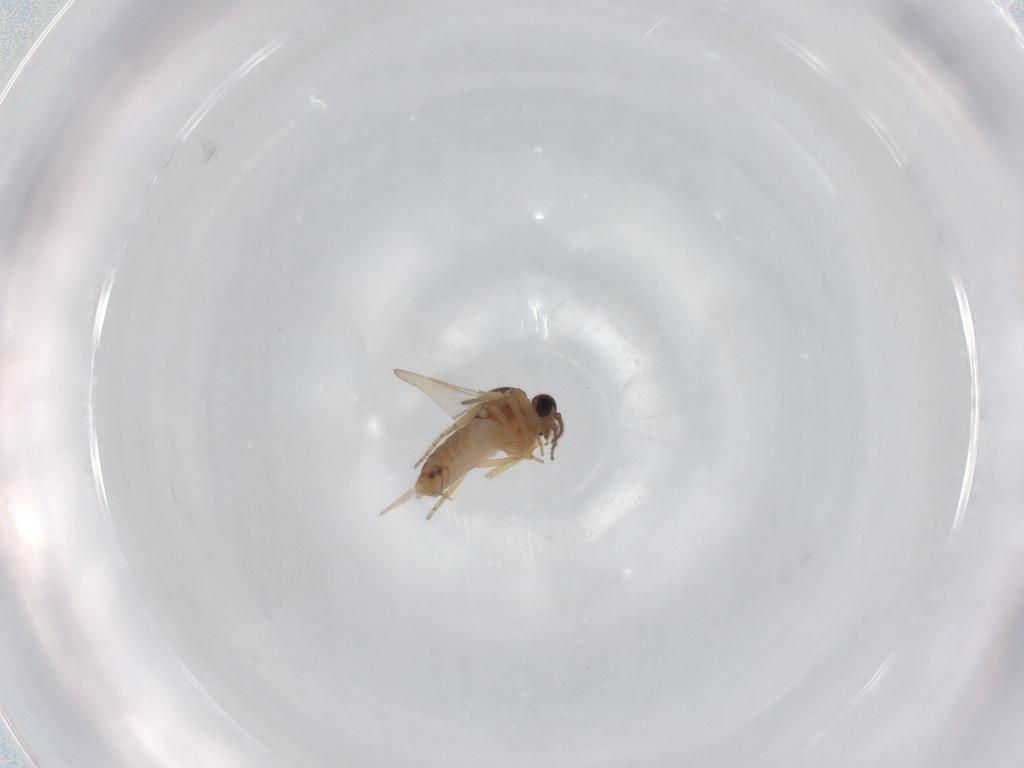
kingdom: Animalia
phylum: Arthropoda
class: Insecta
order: Diptera
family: Ceratopogonidae
